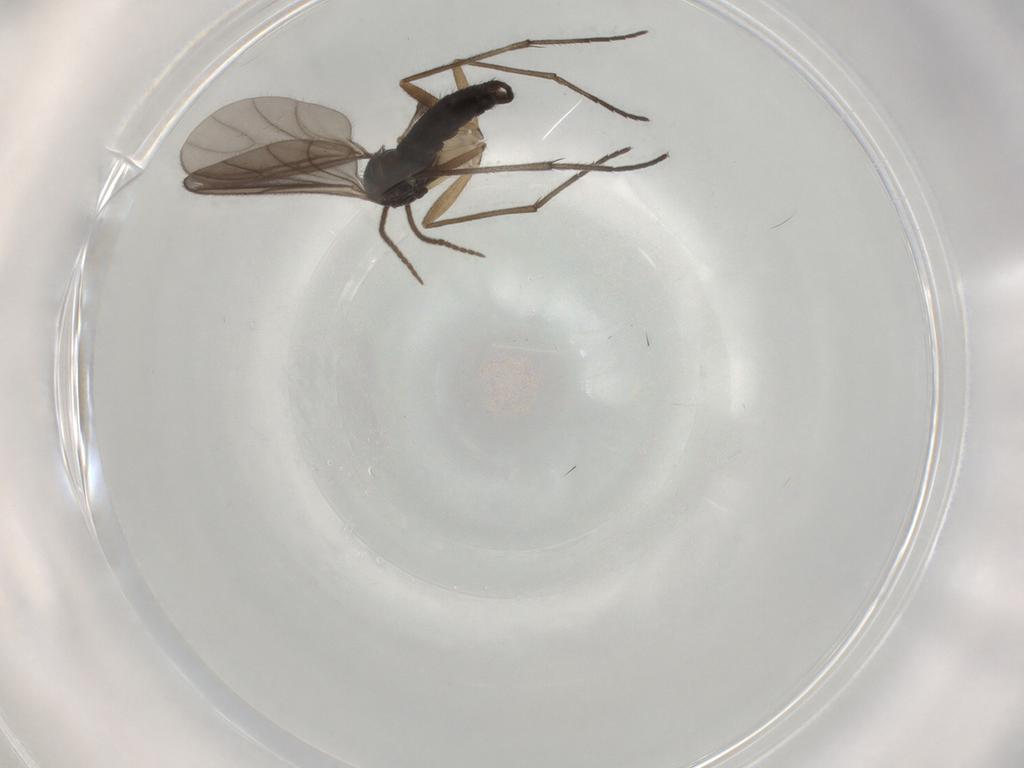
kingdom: Animalia
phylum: Arthropoda
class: Insecta
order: Diptera
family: Sciaridae
